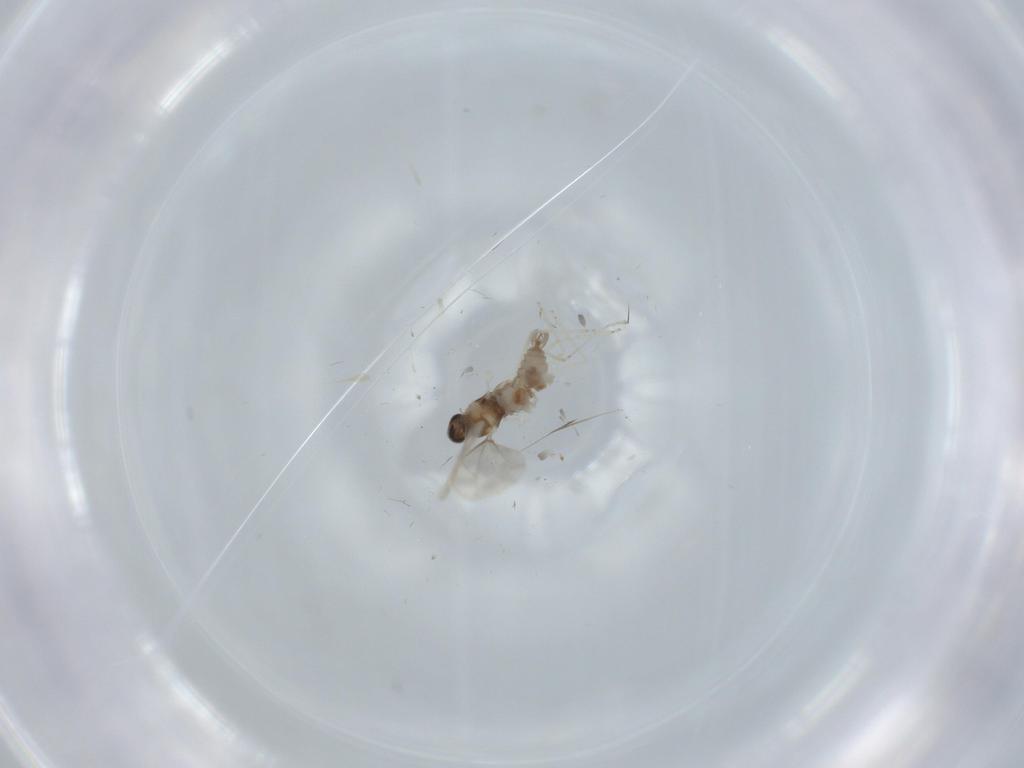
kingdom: Animalia
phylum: Arthropoda
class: Insecta
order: Diptera
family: Cecidomyiidae
